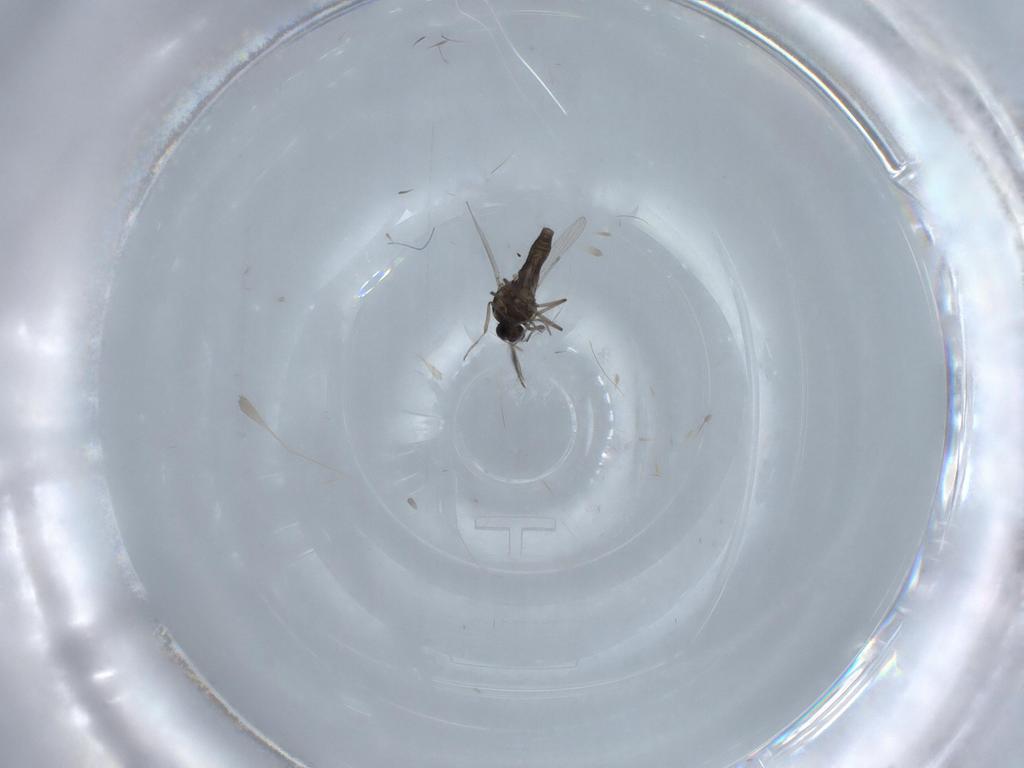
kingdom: Animalia
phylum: Arthropoda
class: Insecta
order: Diptera
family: Ceratopogonidae
